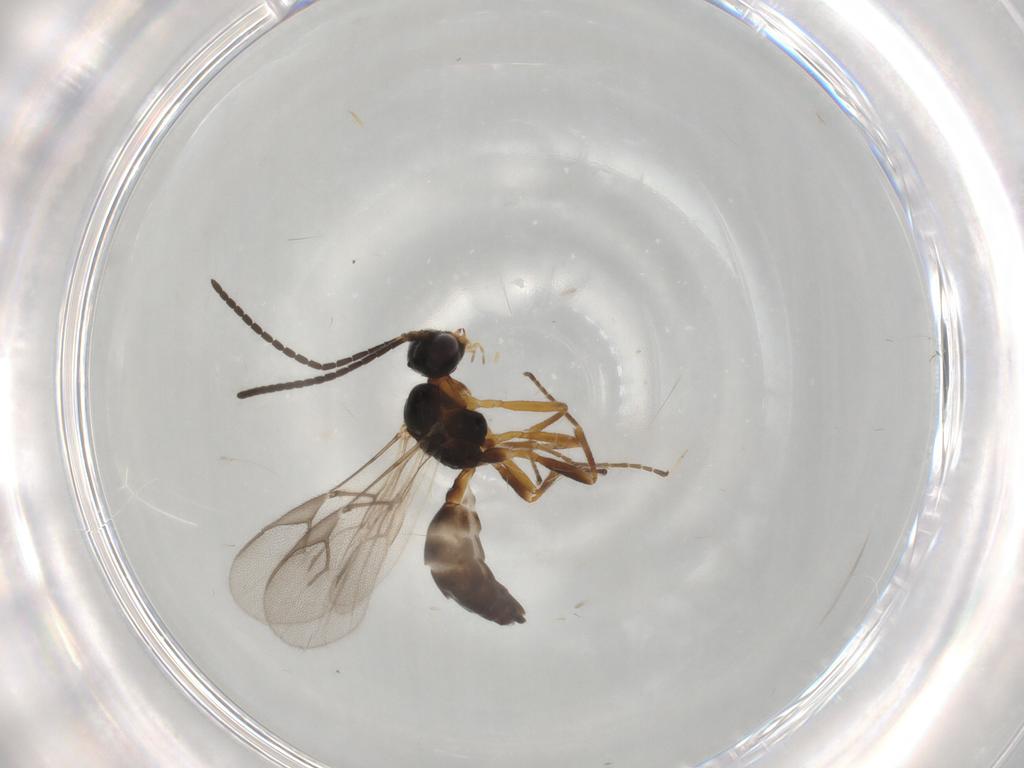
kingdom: Animalia
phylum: Arthropoda
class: Insecta
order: Hymenoptera
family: Braconidae
